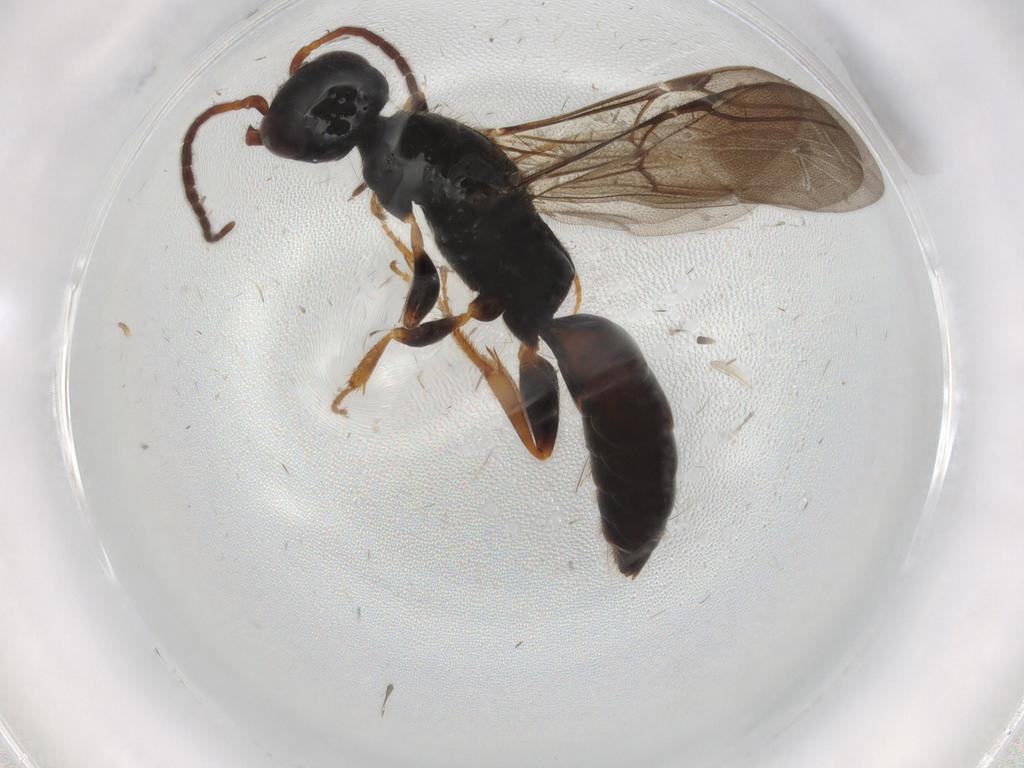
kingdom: Animalia
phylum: Arthropoda
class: Insecta
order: Hymenoptera
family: Bethylidae
